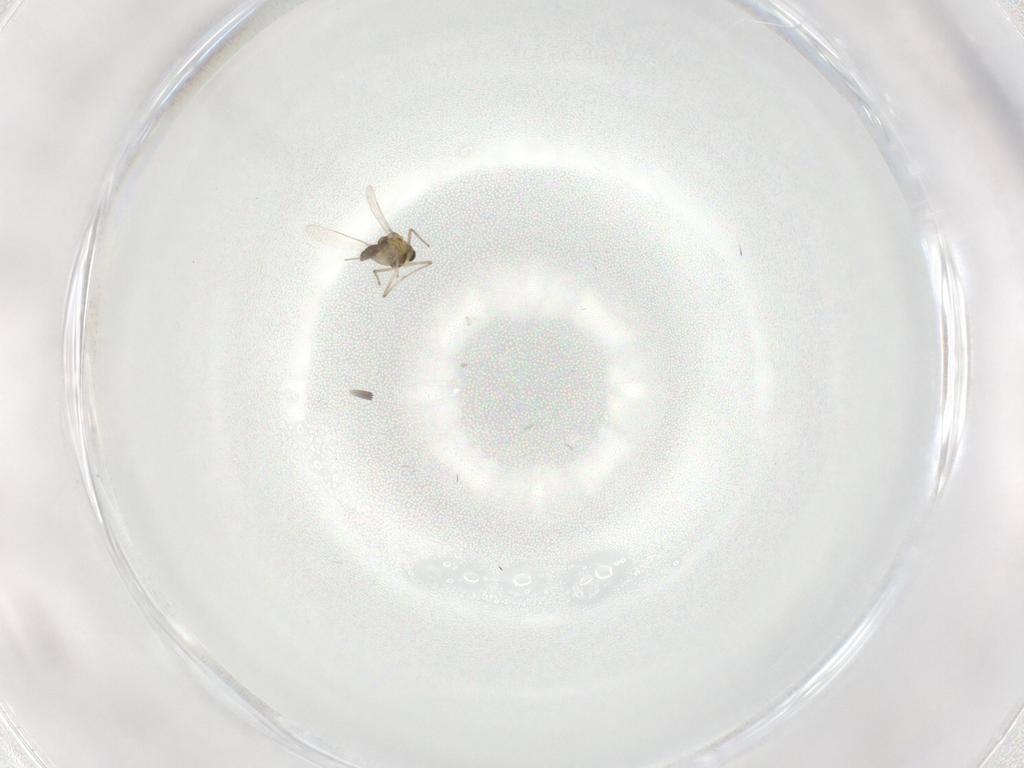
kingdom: Animalia
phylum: Arthropoda
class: Insecta
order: Diptera
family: Chironomidae
